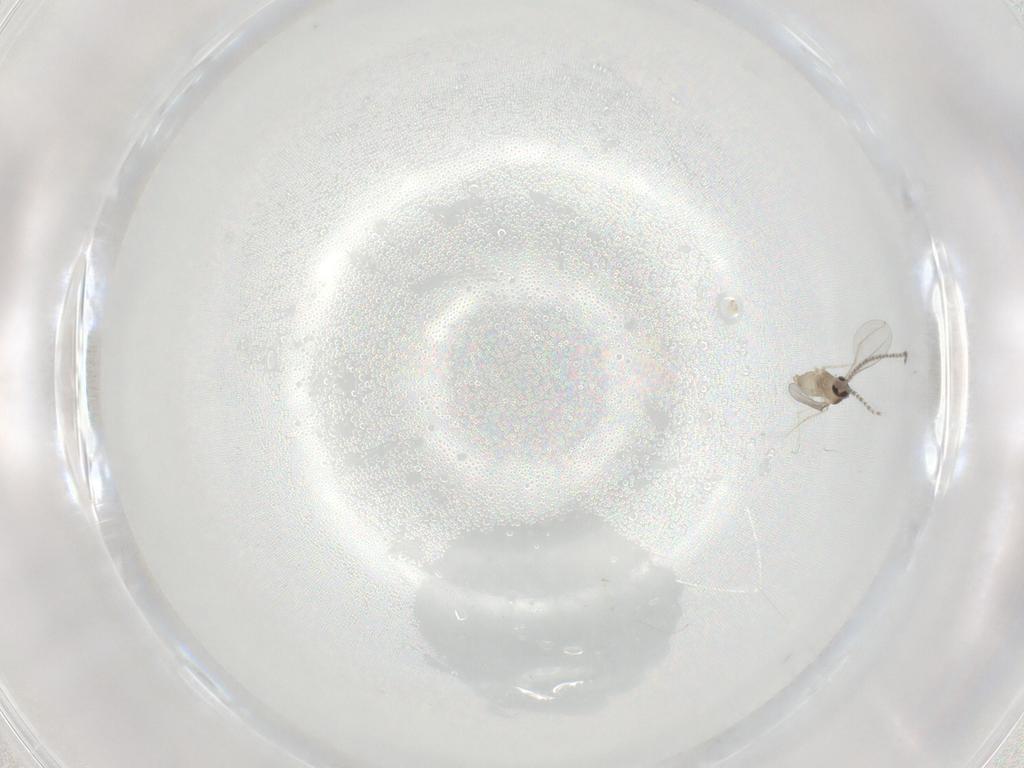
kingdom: Animalia
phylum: Arthropoda
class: Insecta
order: Diptera
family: Cecidomyiidae
